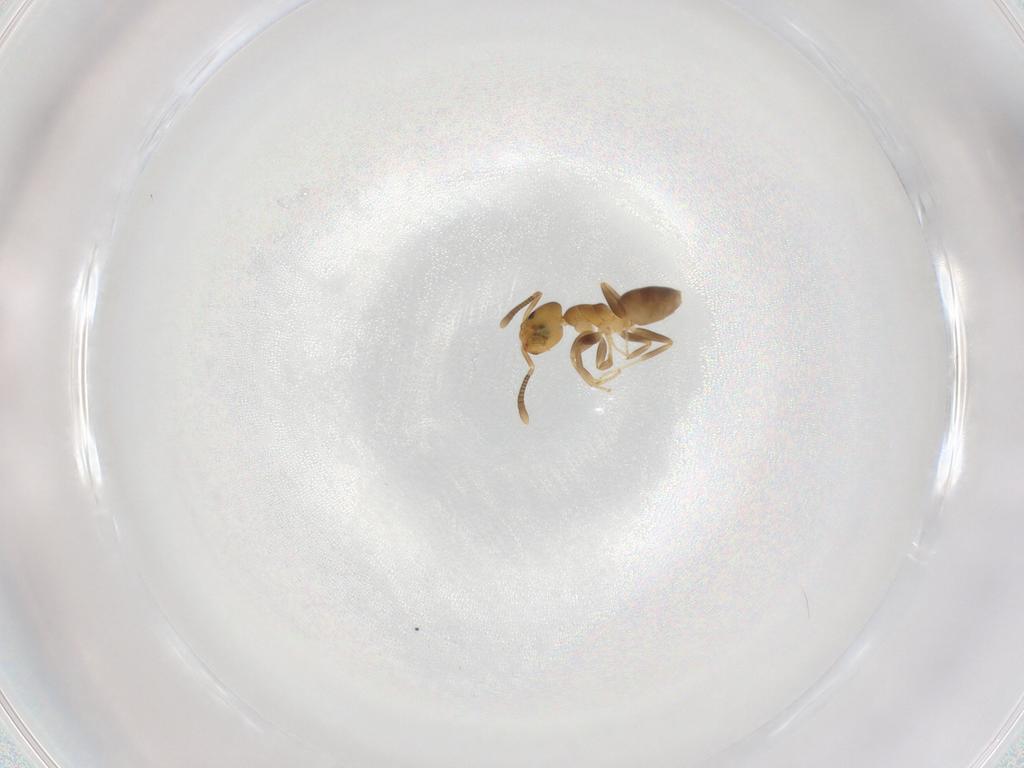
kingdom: Animalia
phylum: Arthropoda
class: Insecta
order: Hymenoptera
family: Formicidae
